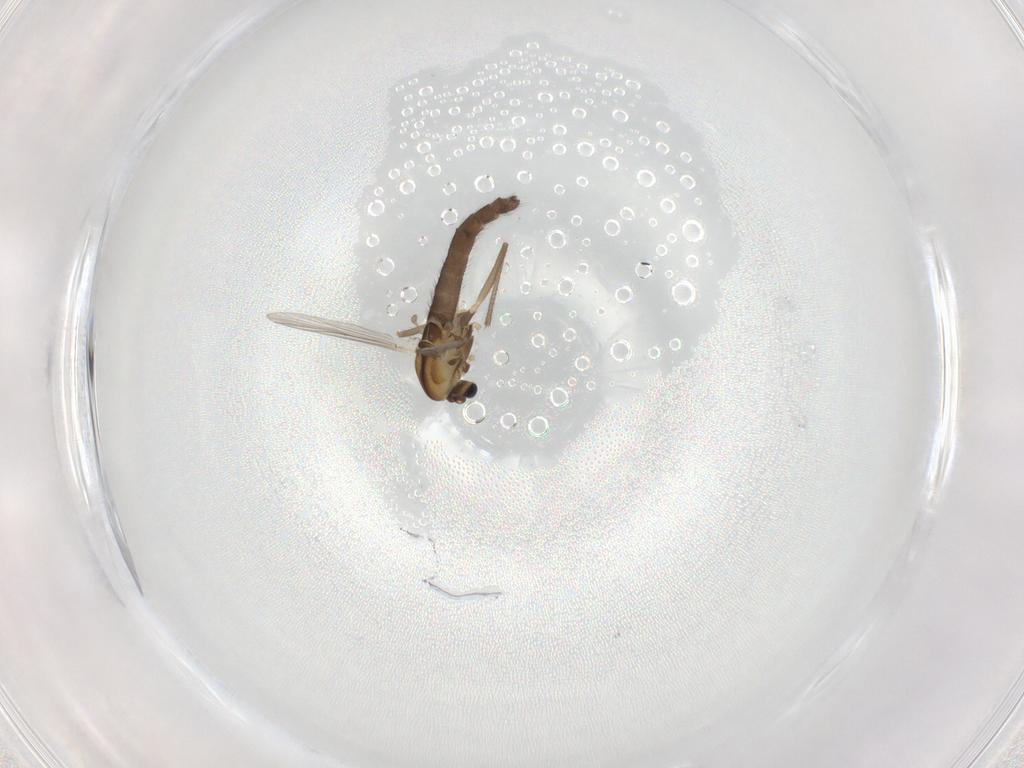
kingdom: Animalia
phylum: Arthropoda
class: Insecta
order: Diptera
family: Chironomidae
